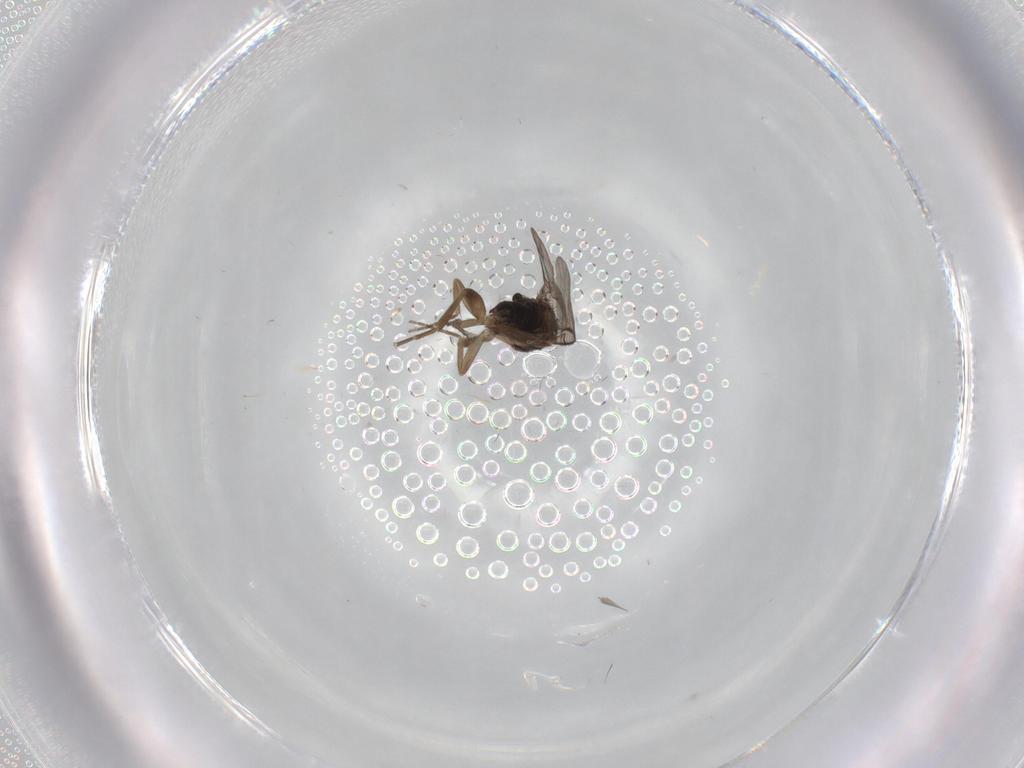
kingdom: Animalia
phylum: Arthropoda
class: Insecta
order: Diptera
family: Phoridae
